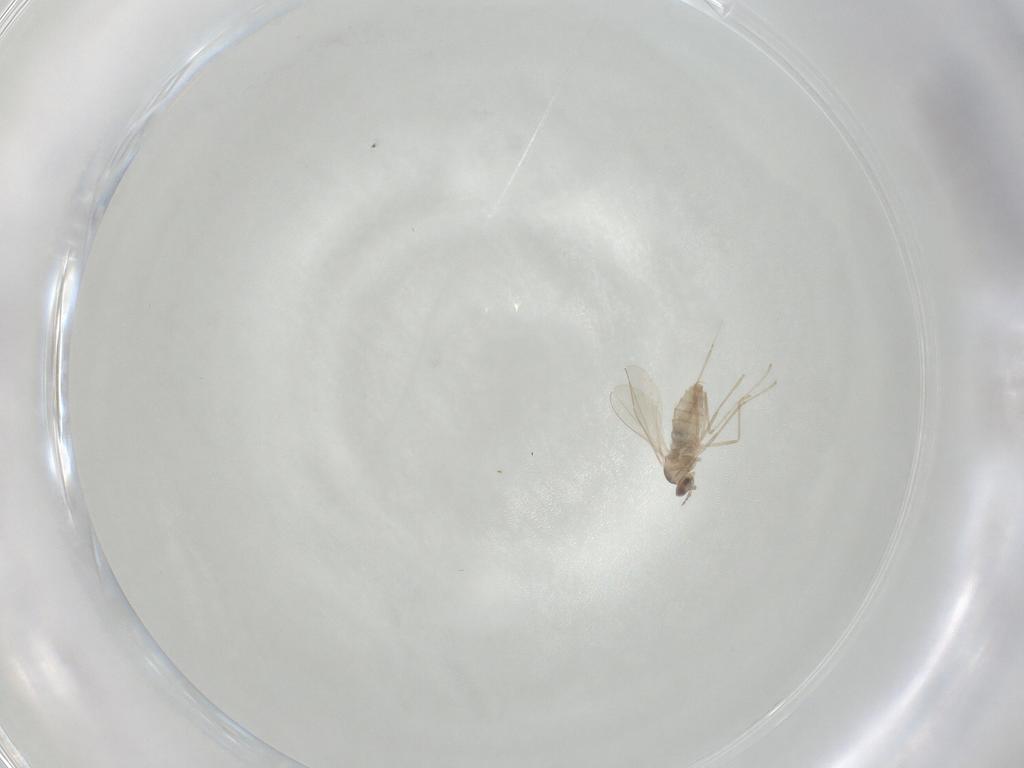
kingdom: Animalia
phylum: Arthropoda
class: Insecta
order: Diptera
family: Cecidomyiidae
